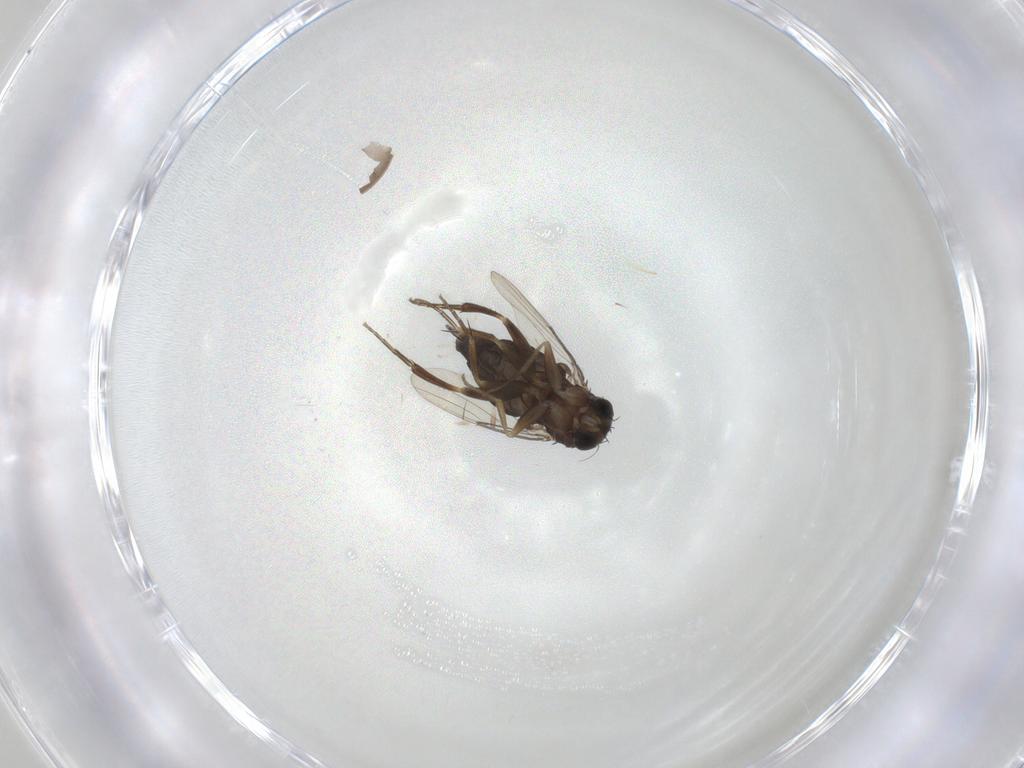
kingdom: Animalia
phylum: Arthropoda
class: Insecta
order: Diptera
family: Phoridae
